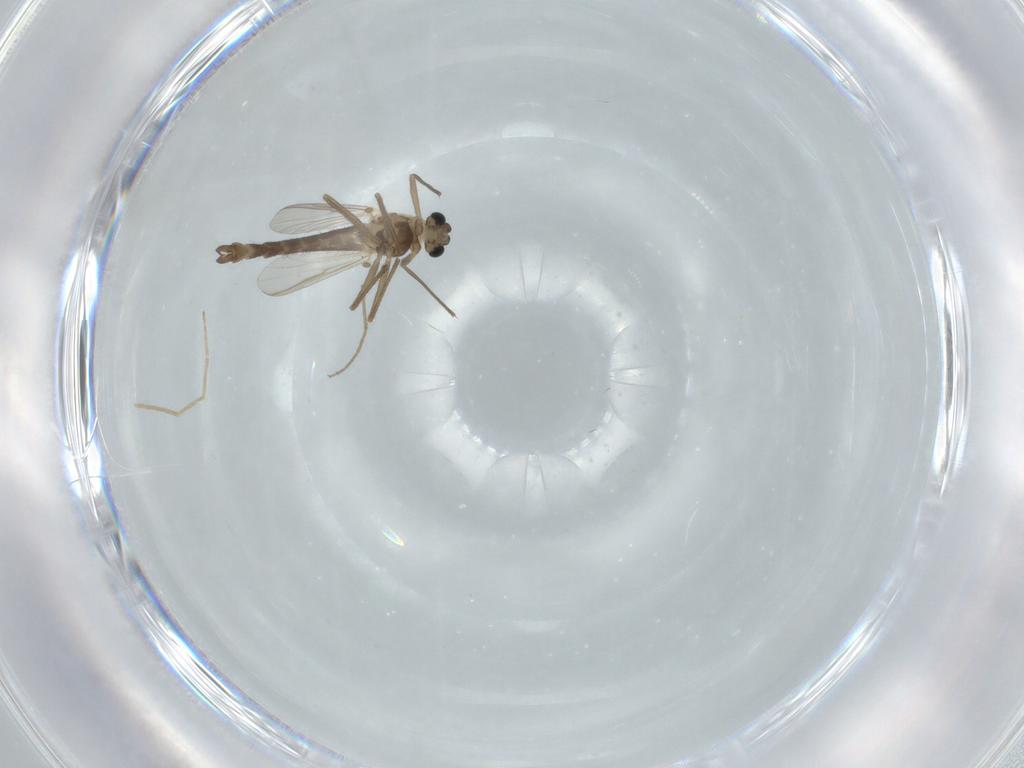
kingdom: Animalia
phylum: Arthropoda
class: Insecta
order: Diptera
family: Chironomidae
